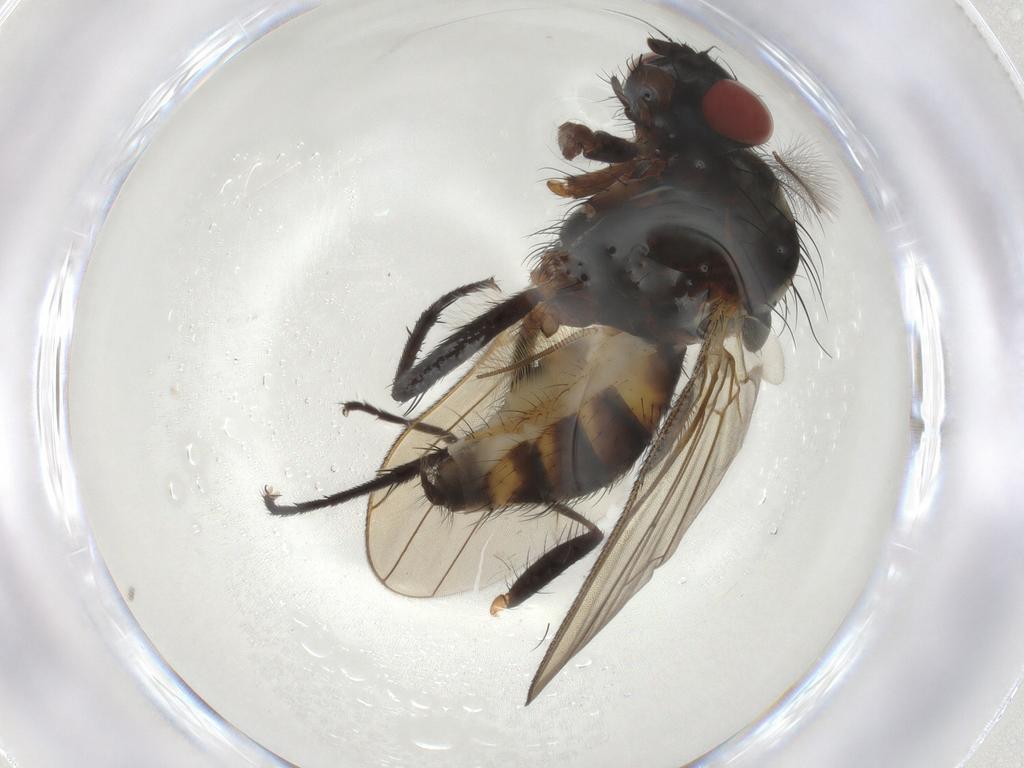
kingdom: Animalia
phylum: Arthropoda
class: Insecta
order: Diptera
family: Anthomyiidae
